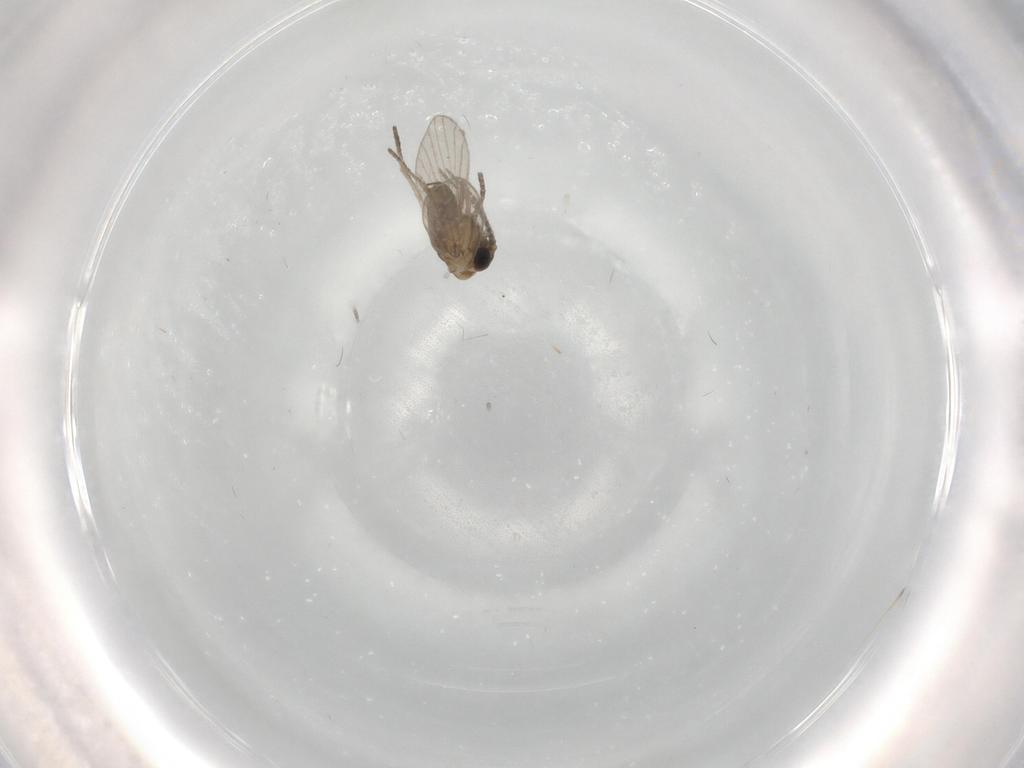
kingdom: Animalia
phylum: Arthropoda
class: Insecta
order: Diptera
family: Psychodidae
